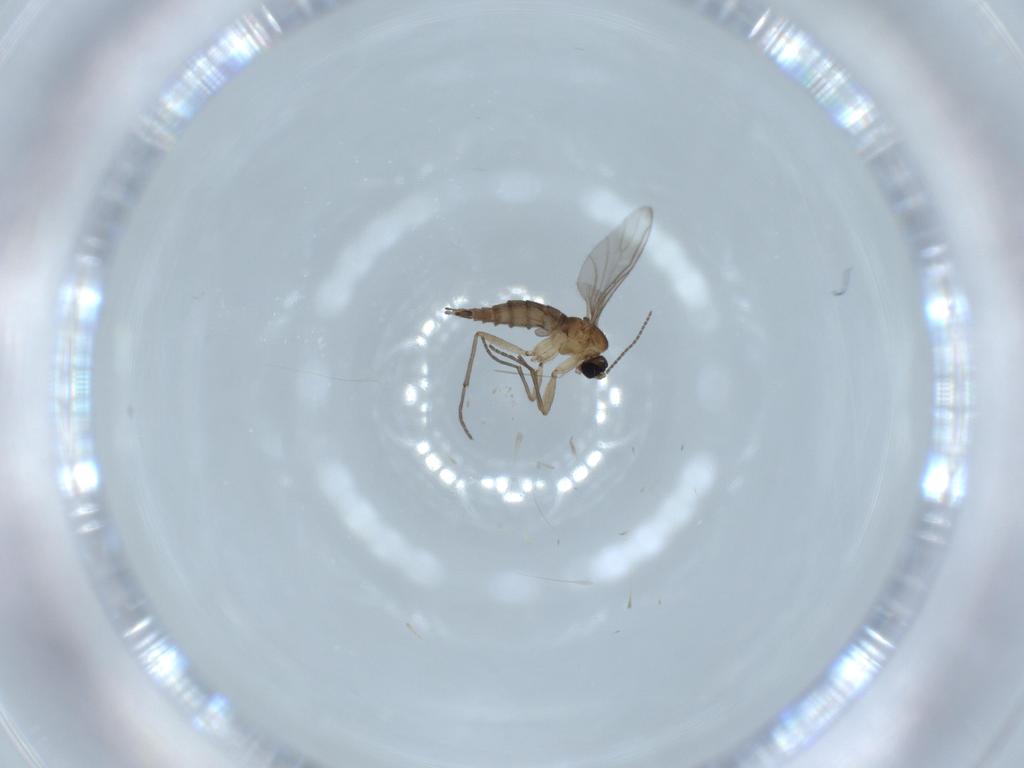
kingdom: Animalia
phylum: Arthropoda
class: Insecta
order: Diptera
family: Sciaridae
